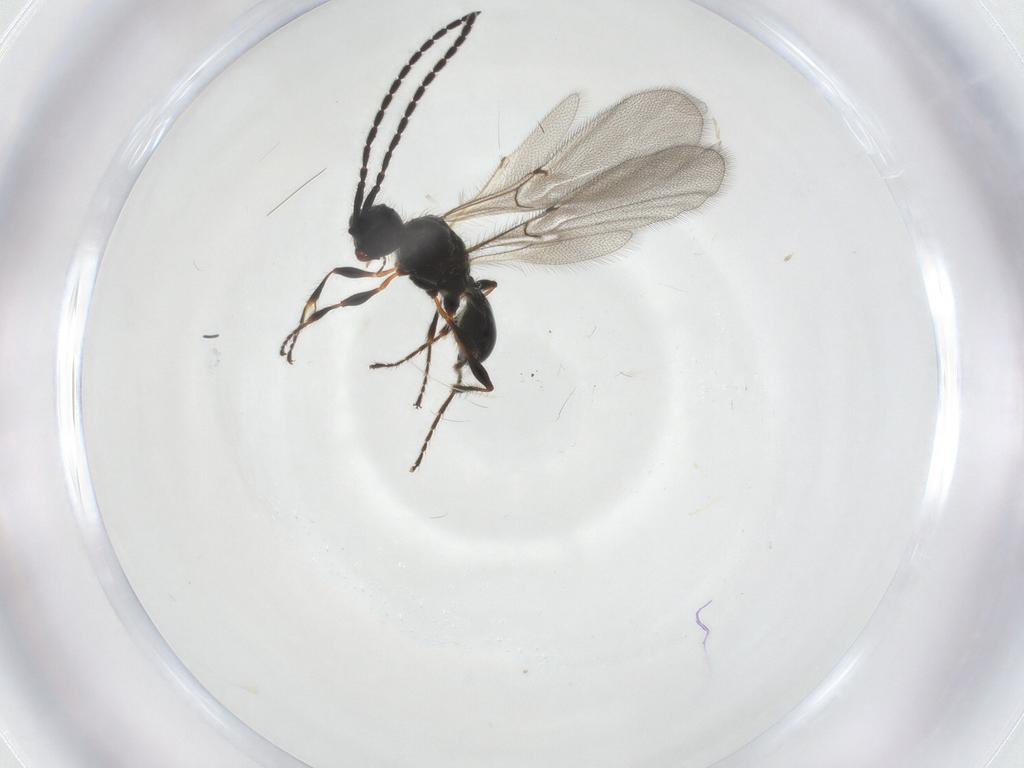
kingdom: Animalia
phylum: Arthropoda
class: Insecta
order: Hymenoptera
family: Diapriidae
